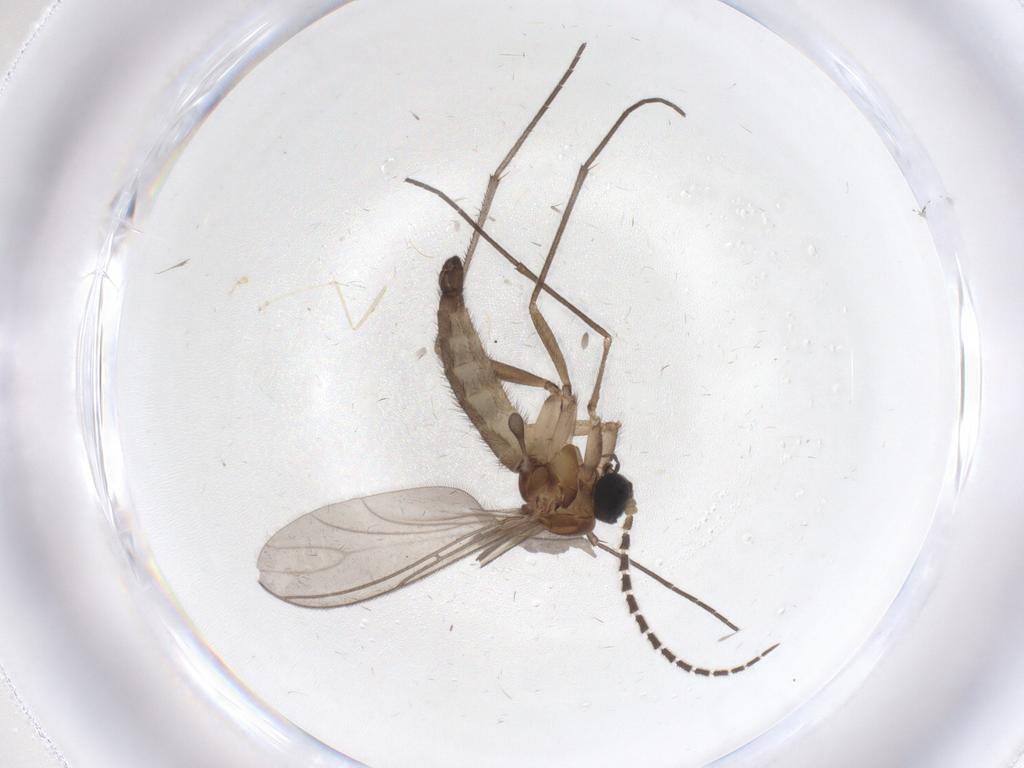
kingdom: Animalia
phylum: Arthropoda
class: Insecta
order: Diptera
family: Sciaridae
